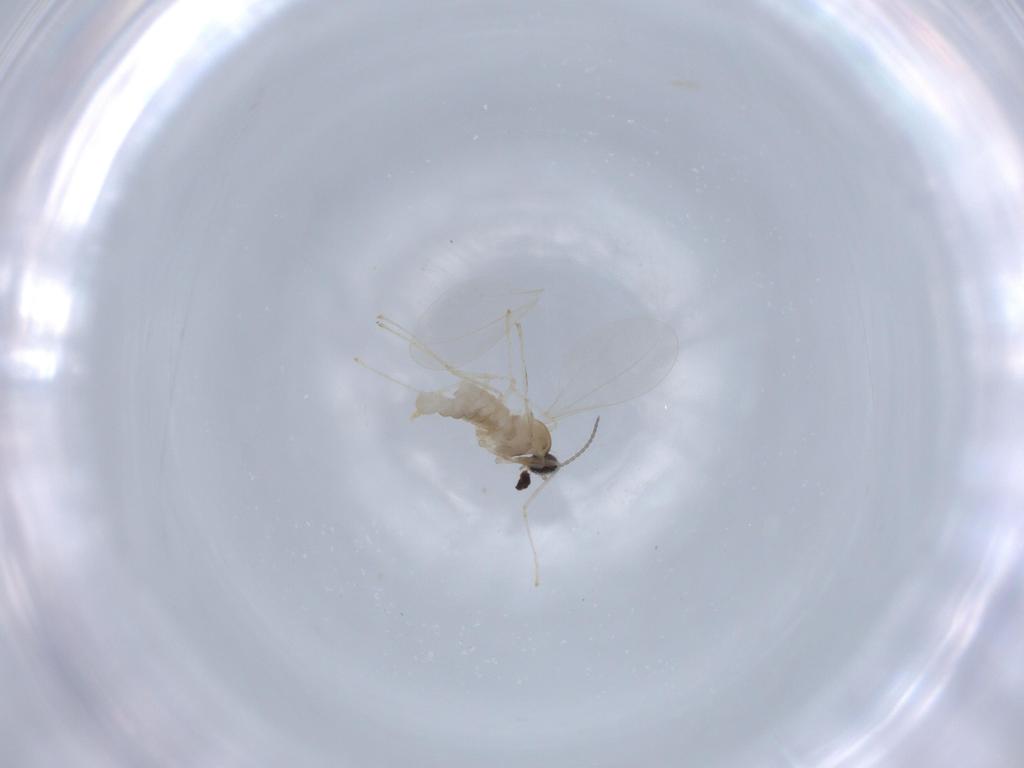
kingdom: Animalia
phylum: Arthropoda
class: Insecta
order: Diptera
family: Cecidomyiidae
